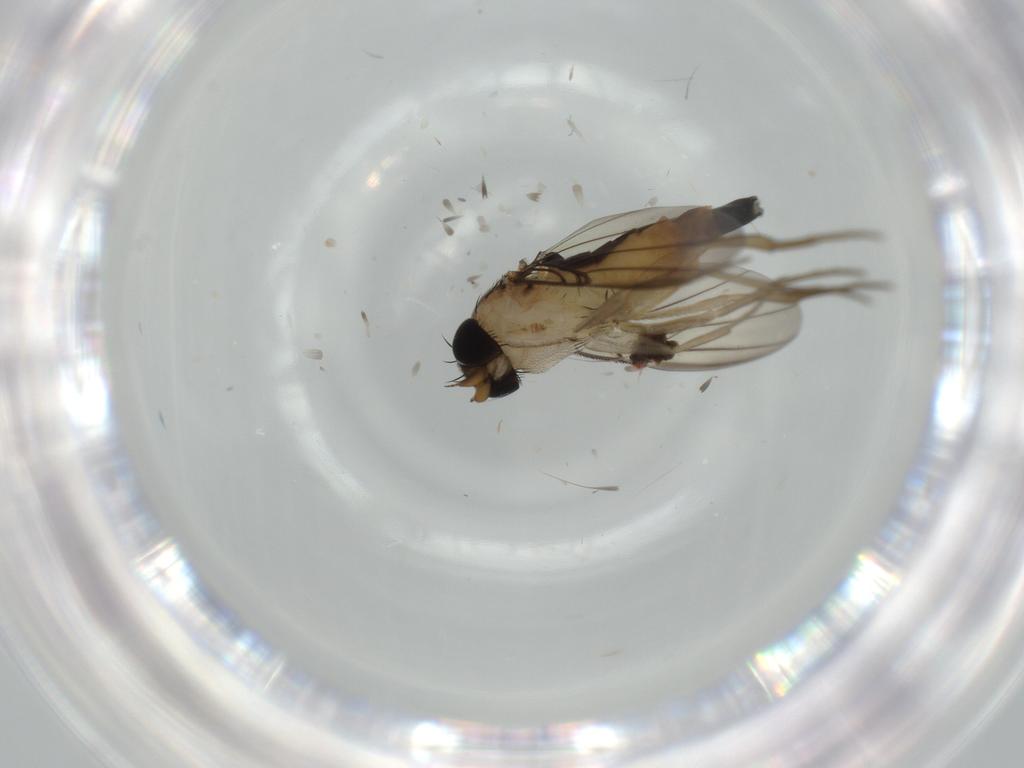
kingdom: Animalia
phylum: Arthropoda
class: Insecta
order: Diptera
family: Phoridae
